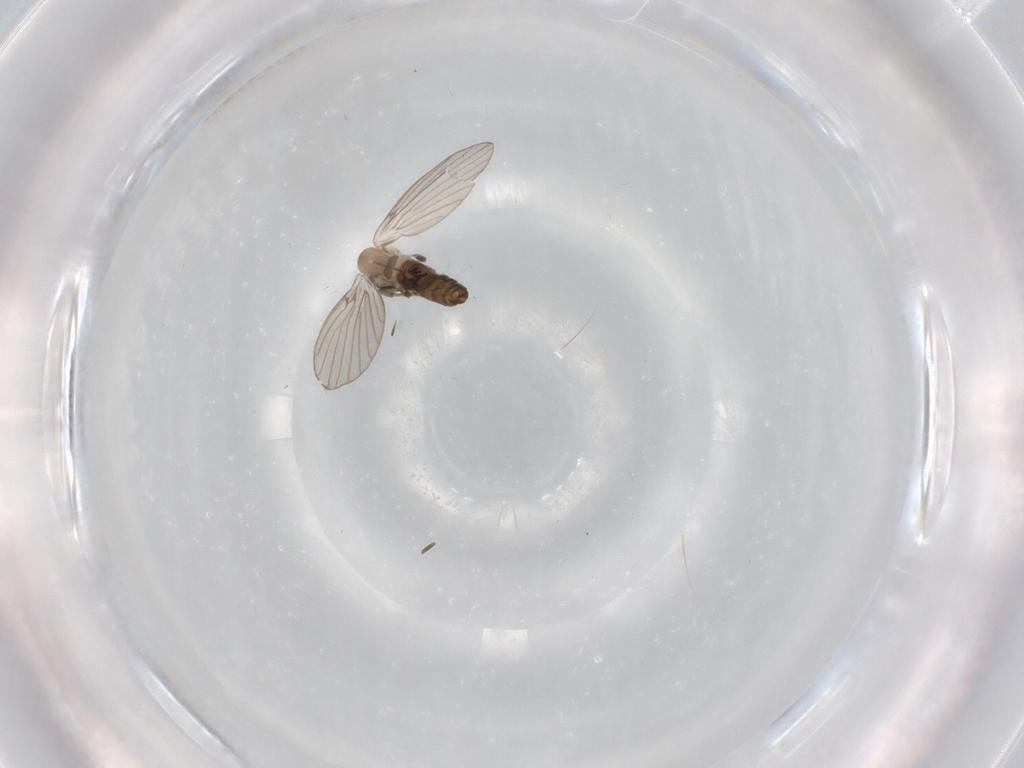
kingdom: Animalia
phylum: Arthropoda
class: Insecta
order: Diptera
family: Psychodidae
